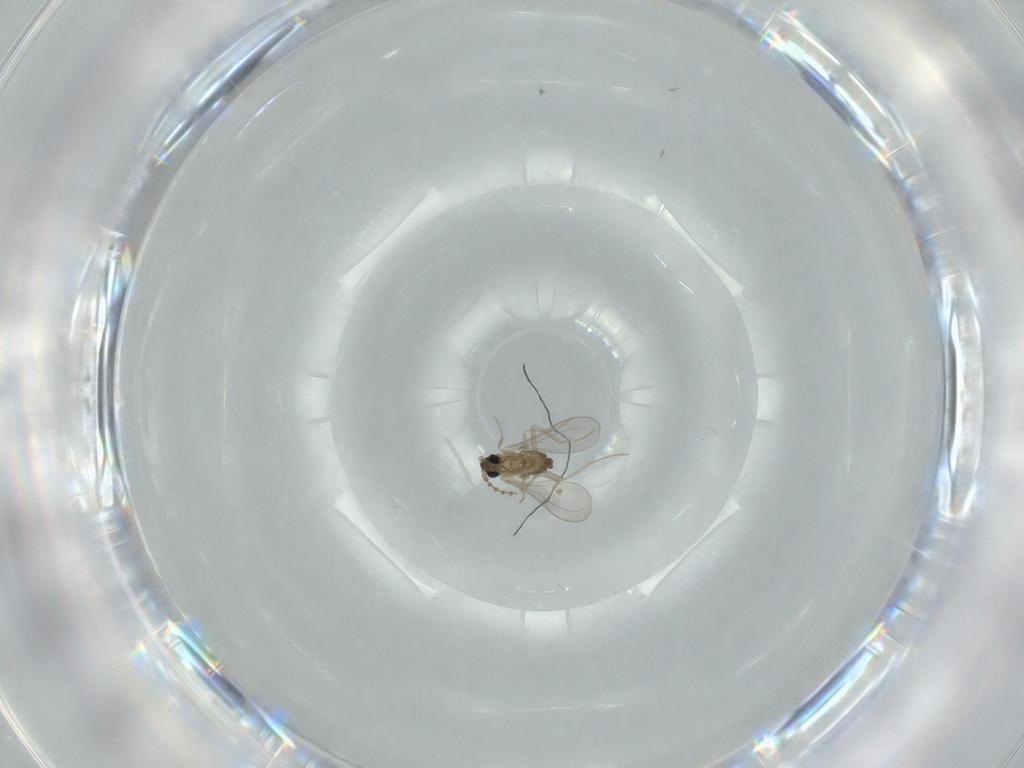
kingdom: Animalia
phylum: Arthropoda
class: Insecta
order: Diptera
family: Cecidomyiidae
